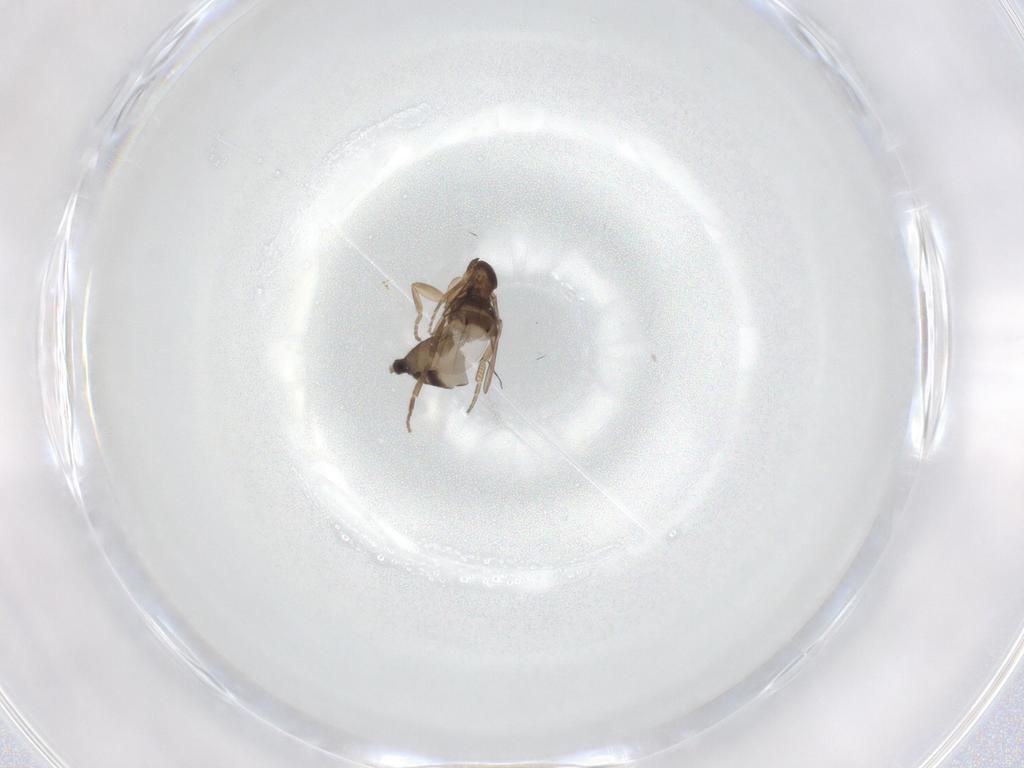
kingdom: Animalia
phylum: Arthropoda
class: Insecta
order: Diptera
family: Phoridae
